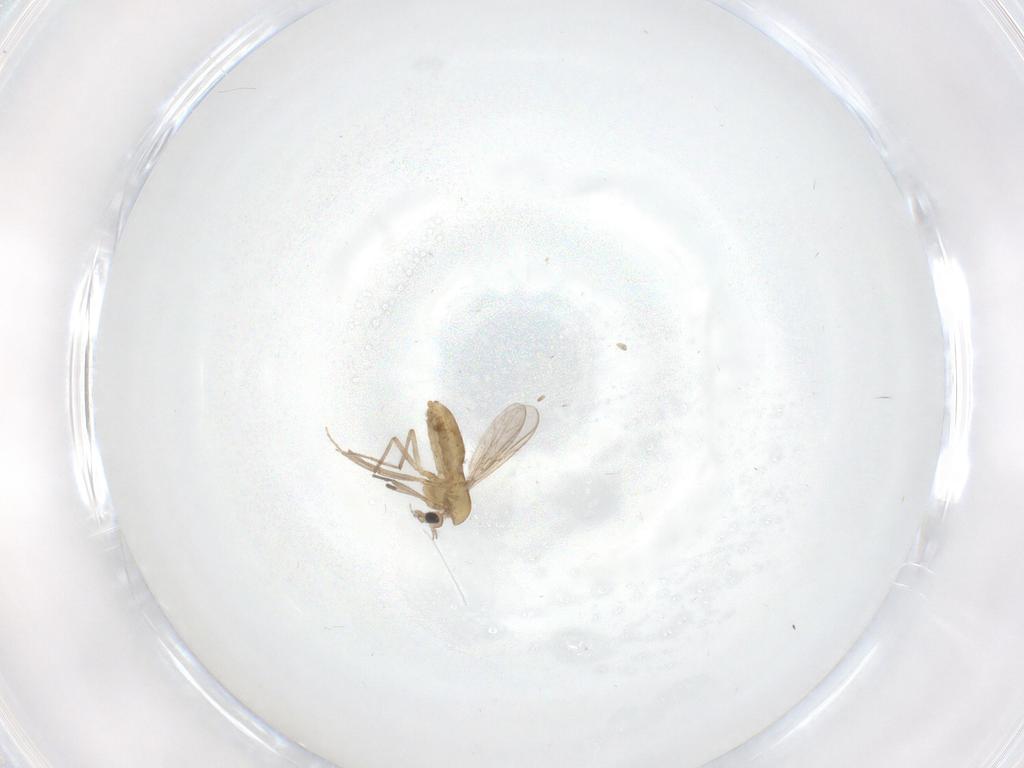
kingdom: Animalia
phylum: Arthropoda
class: Insecta
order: Diptera
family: Chironomidae
